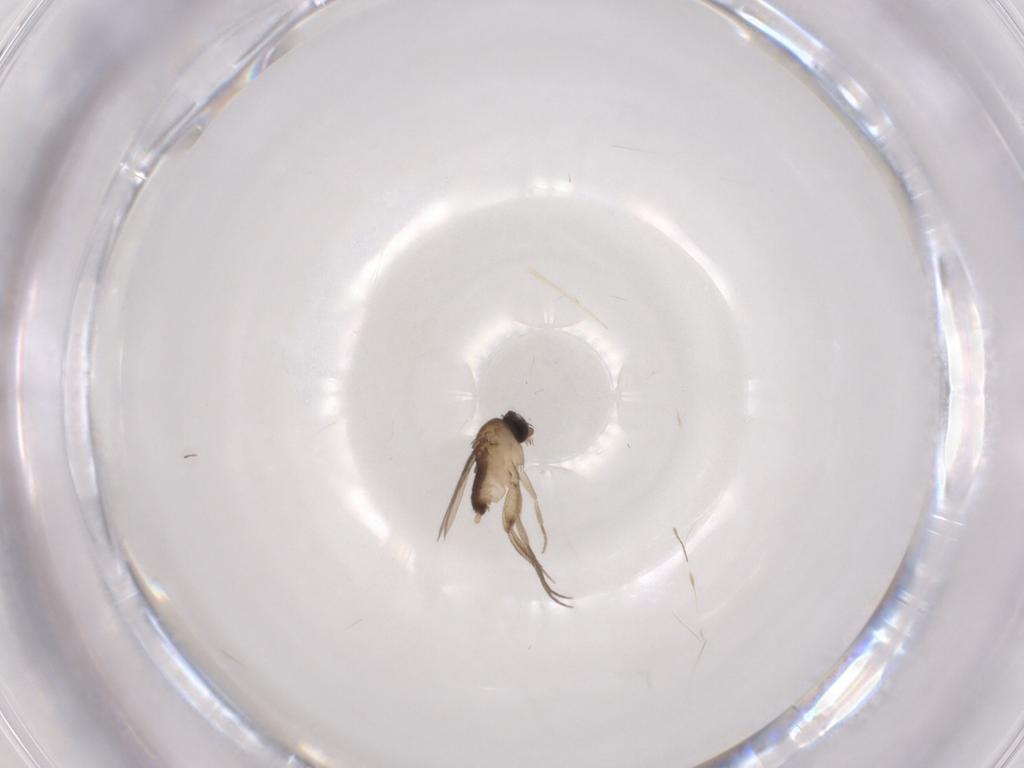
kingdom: Animalia
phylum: Arthropoda
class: Insecta
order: Diptera
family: Phoridae
